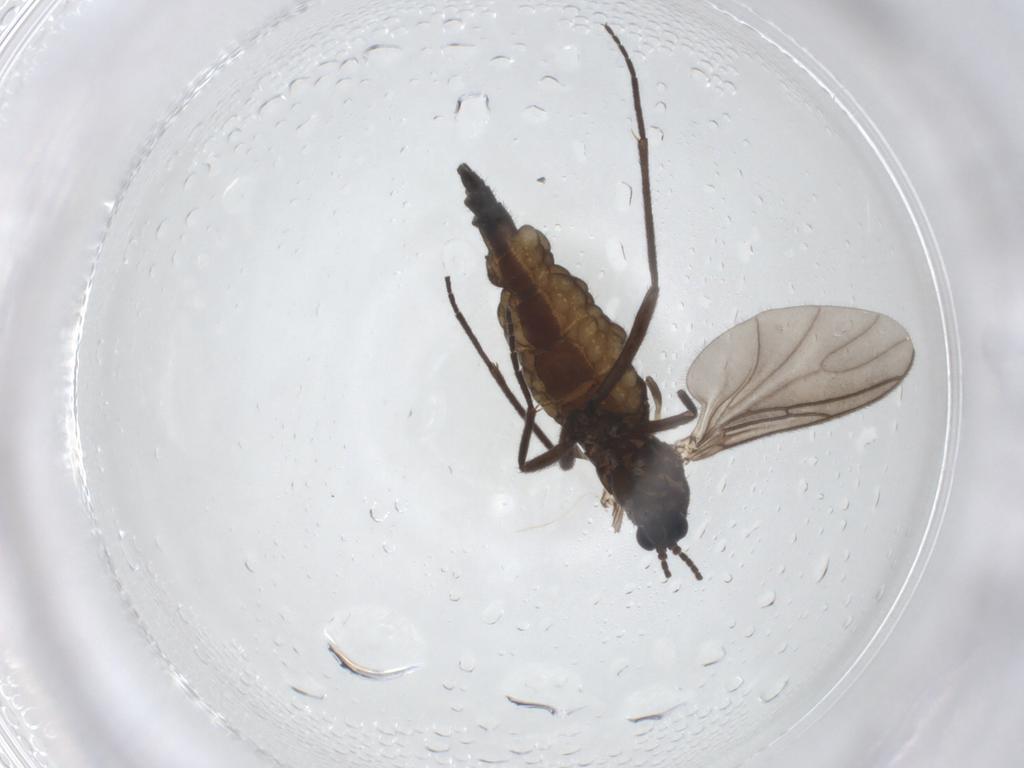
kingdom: Animalia
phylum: Arthropoda
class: Insecta
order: Diptera
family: Sciaridae
